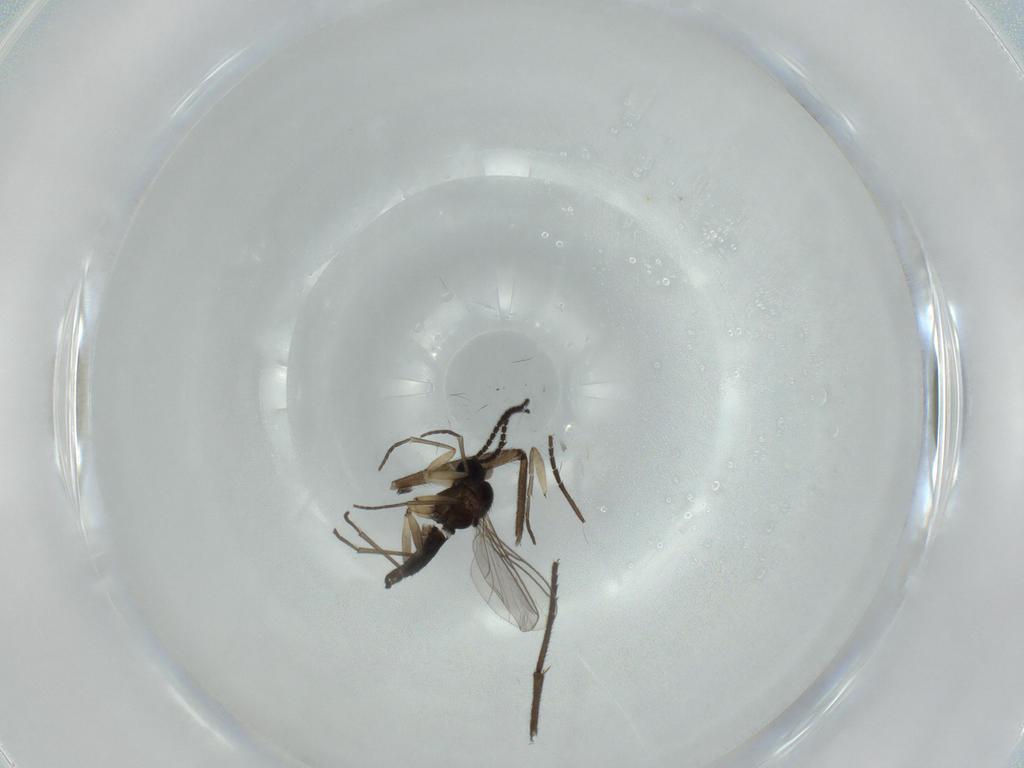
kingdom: Animalia
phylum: Arthropoda
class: Insecta
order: Diptera
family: Sciaridae
